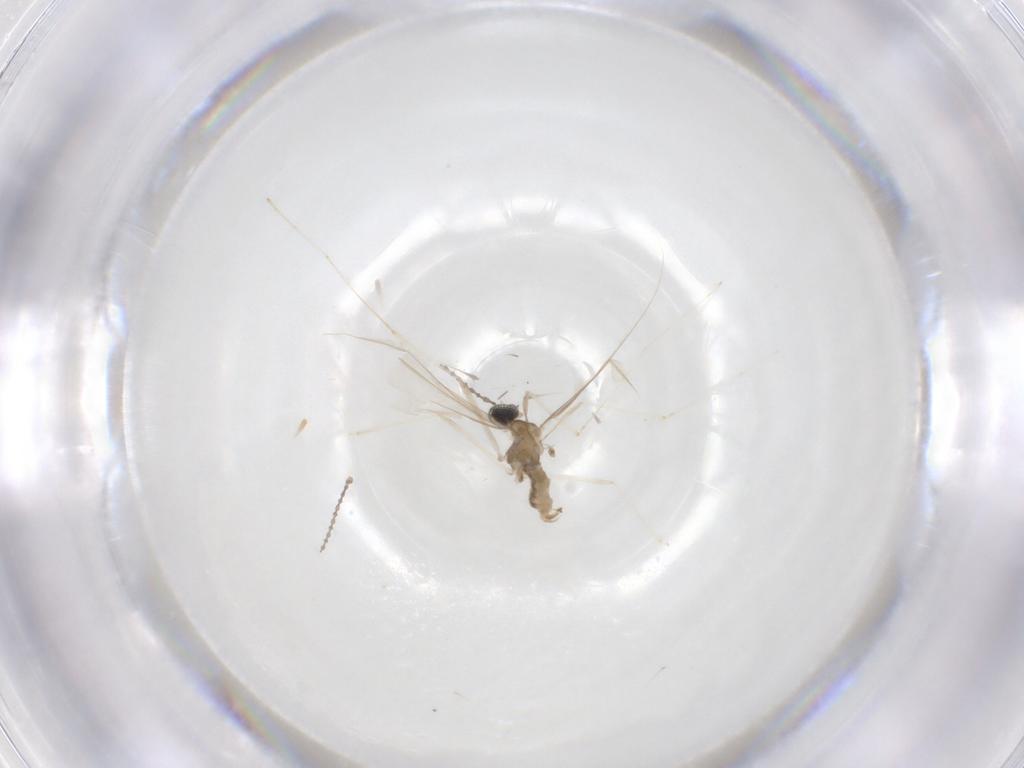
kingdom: Animalia
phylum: Arthropoda
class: Insecta
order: Diptera
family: Cecidomyiidae
